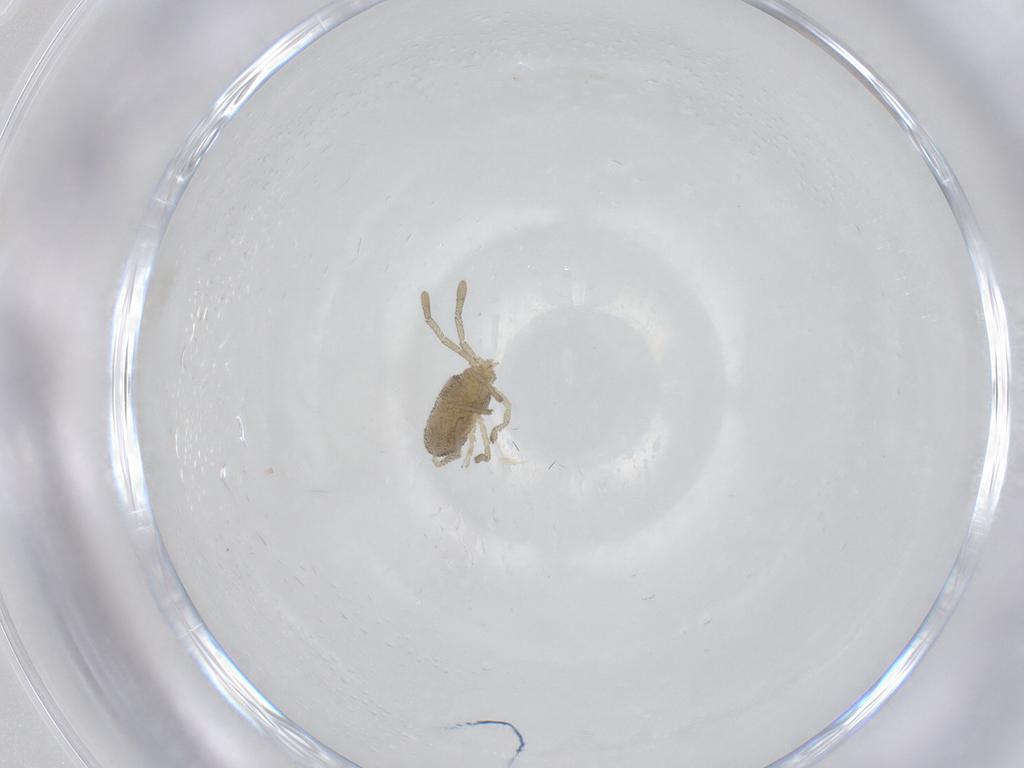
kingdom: Animalia
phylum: Arthropoda
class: Arachnida
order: Trombidiformes
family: Smarididae
